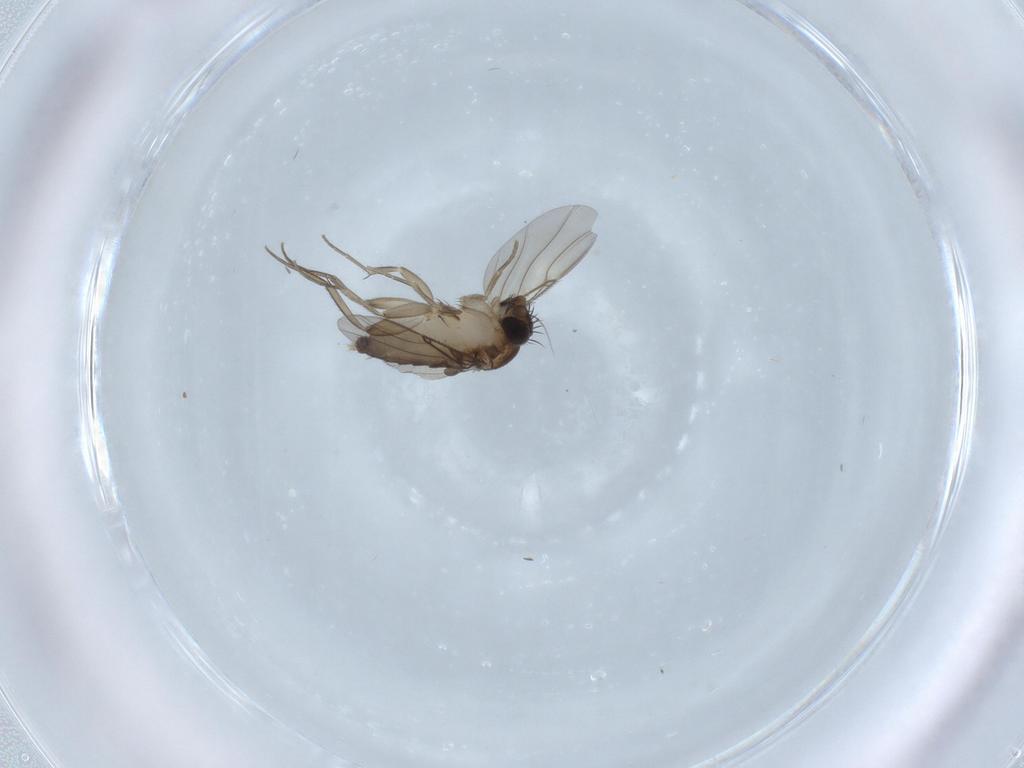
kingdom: Animalia
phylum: Arthropoda
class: Insecta
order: Diptera
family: Phoridae
